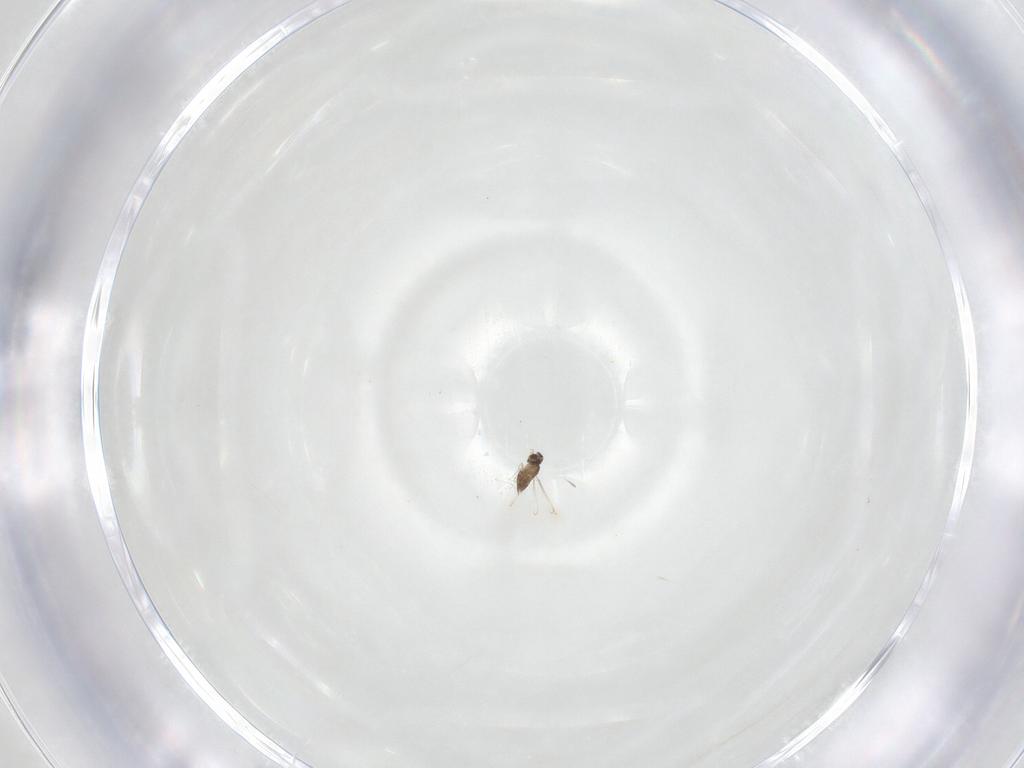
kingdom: Animalia
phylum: Arthropoda
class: Insecta
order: Hymenoptera
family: Mymaridae
